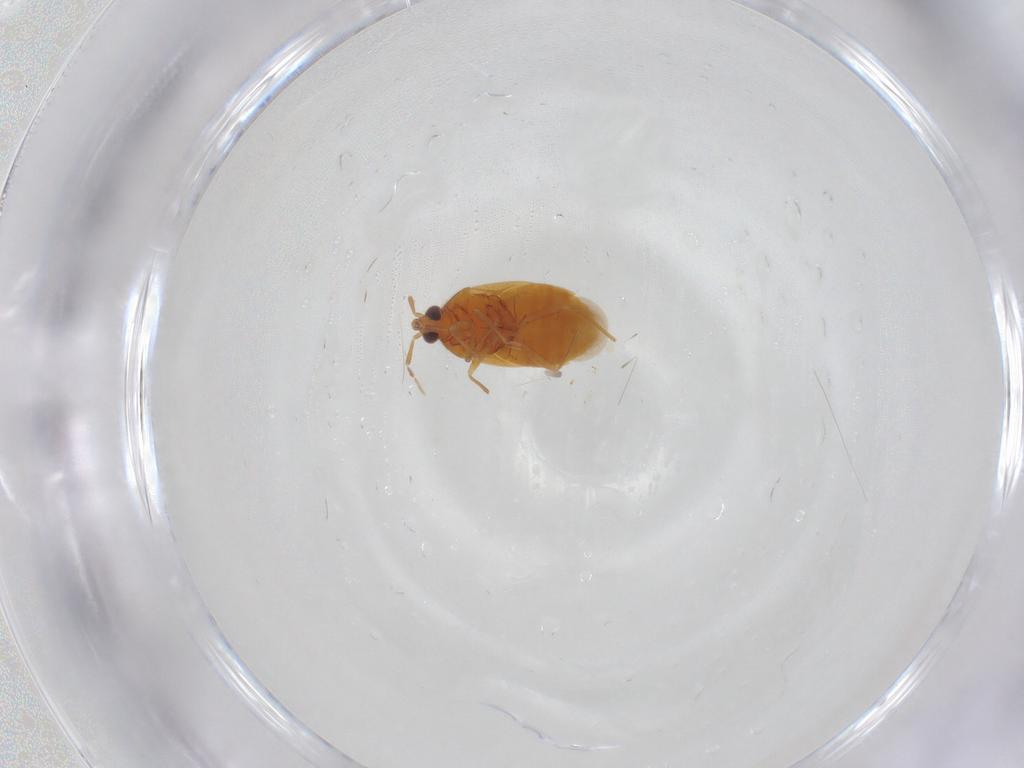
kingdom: Animalia
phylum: Arthropoda
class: Insecta
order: Hemiptera
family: Anthocoridae
